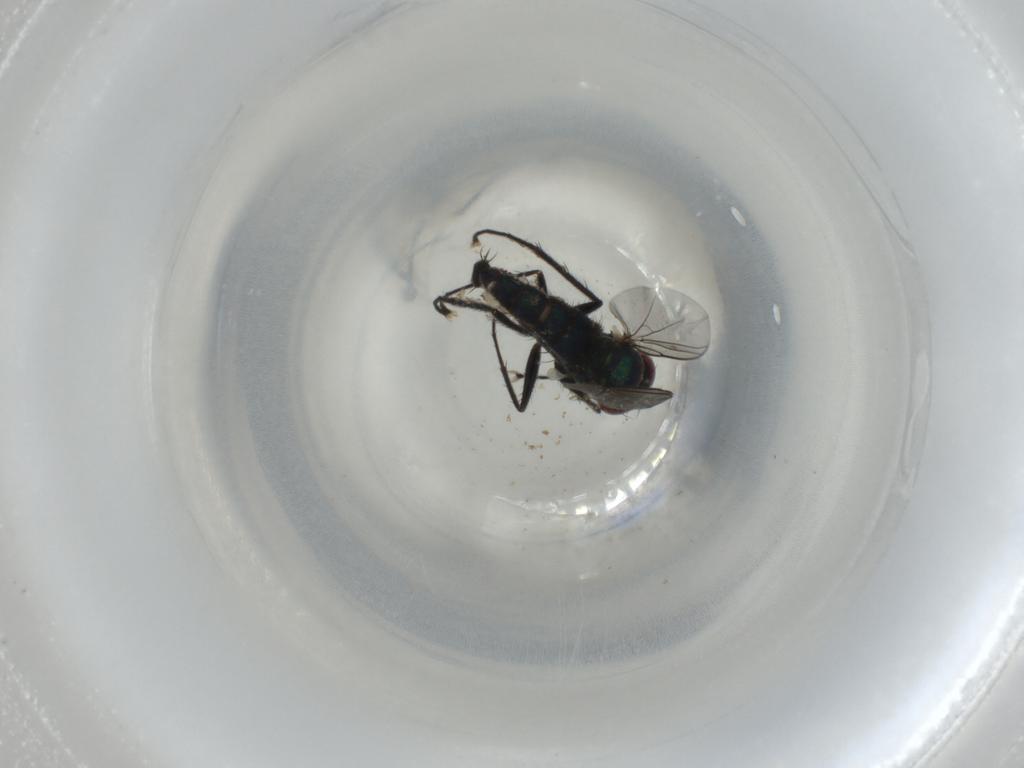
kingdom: Animalia
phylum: Arthropoda
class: Insecta
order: Diptera
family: Dolichopodidae
